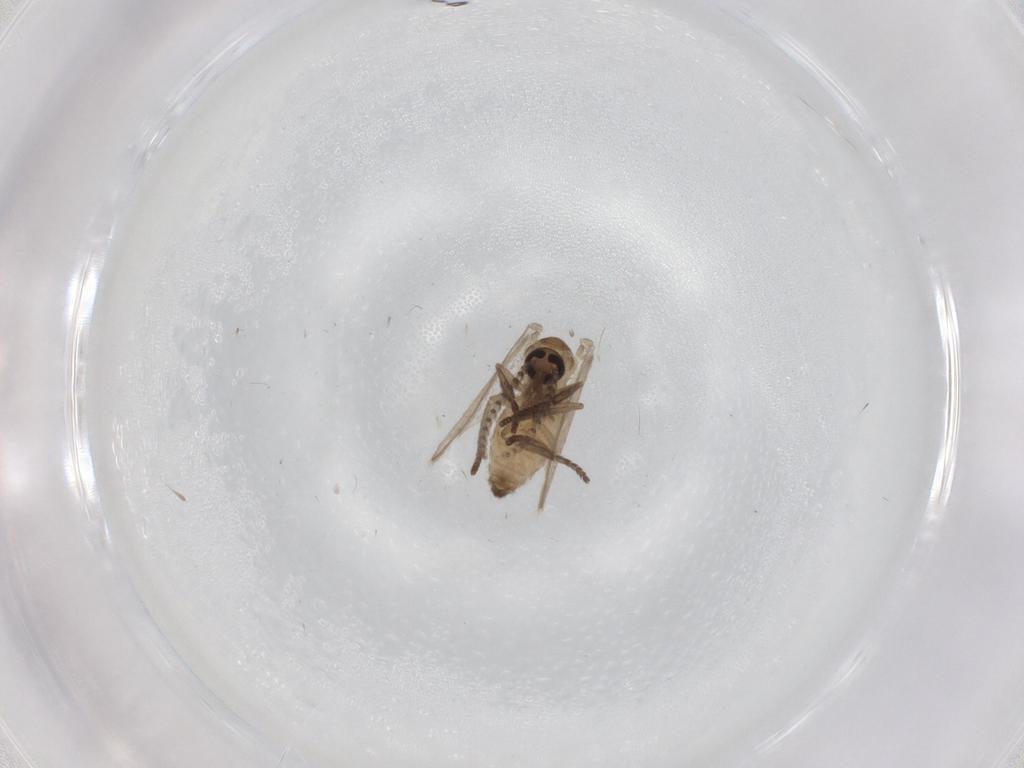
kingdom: Animalia
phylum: Arthropoda
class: Insecta
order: Diptera
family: Psychodidae
